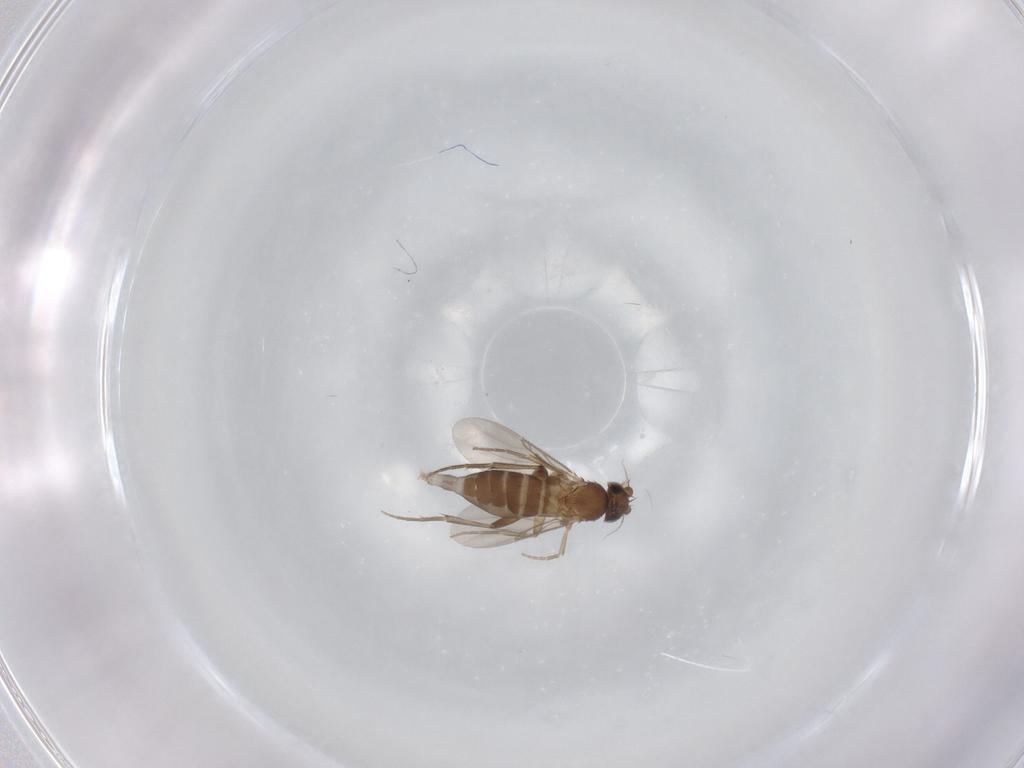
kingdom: Animalia
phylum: Arthropoda
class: Insecta
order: Diptera
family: Phoridae
